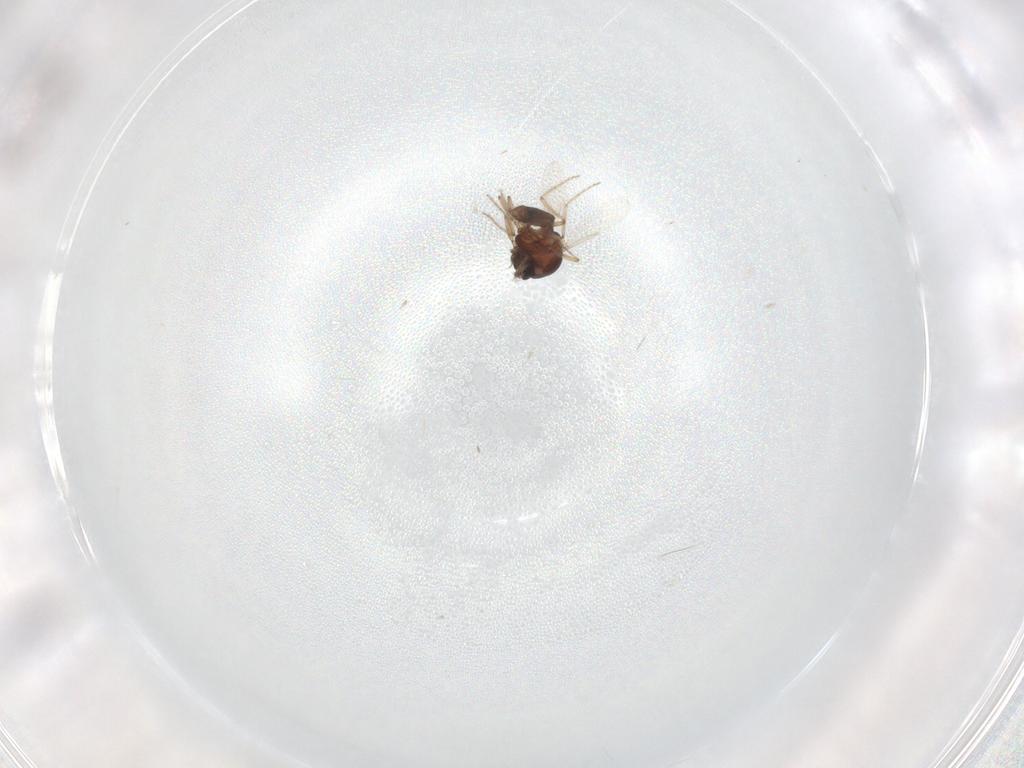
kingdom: Animalia
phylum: Arthropoda
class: Insecta
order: Diptera
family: Ceratopogonidae
